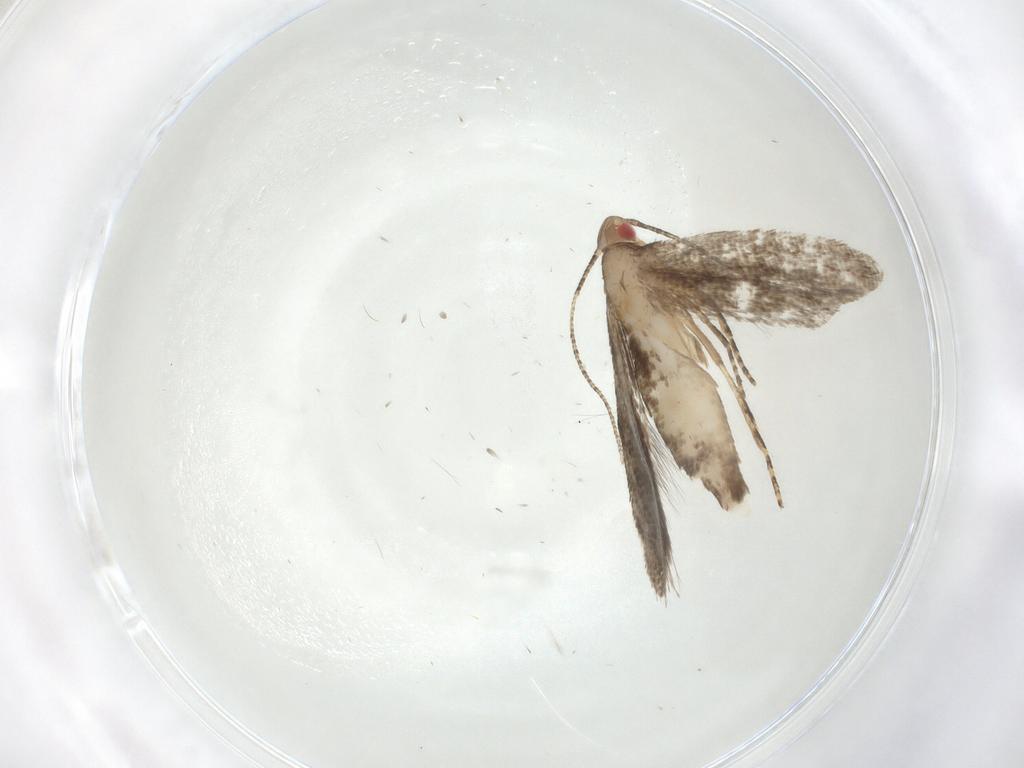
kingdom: Animalia
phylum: Arthropoda
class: Insecta
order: Lepidoptera
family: Gelechiidae
